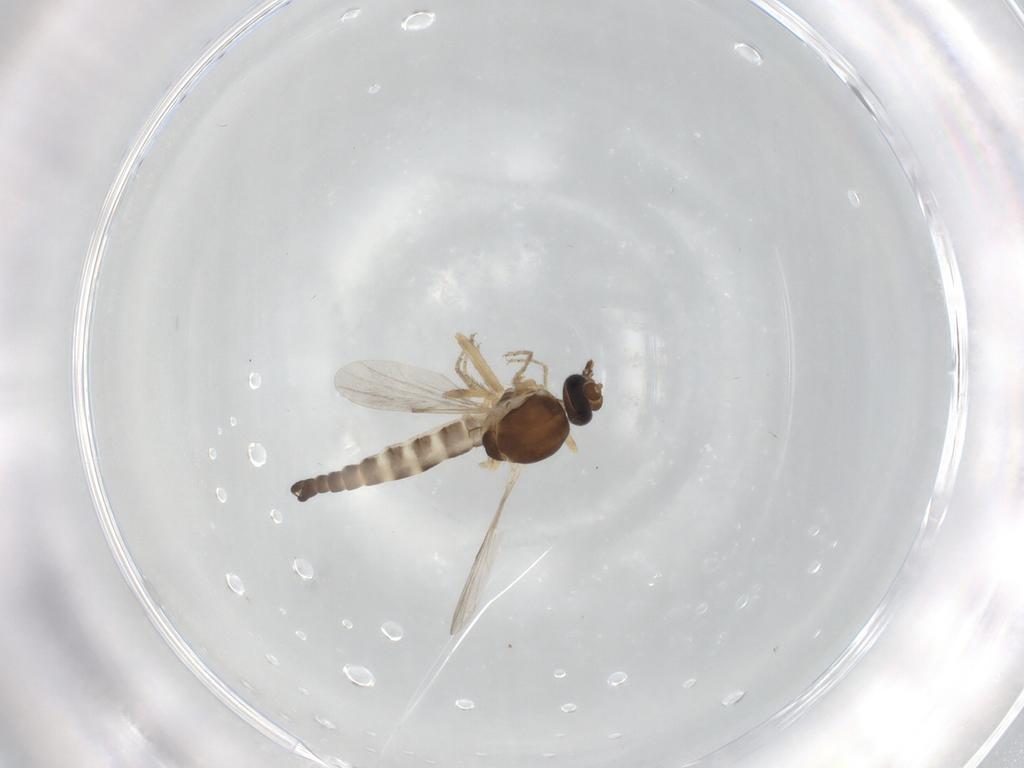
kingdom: Animalia
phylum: Arthropoda
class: Insecta
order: Diptera
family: Ceratopogonidae
